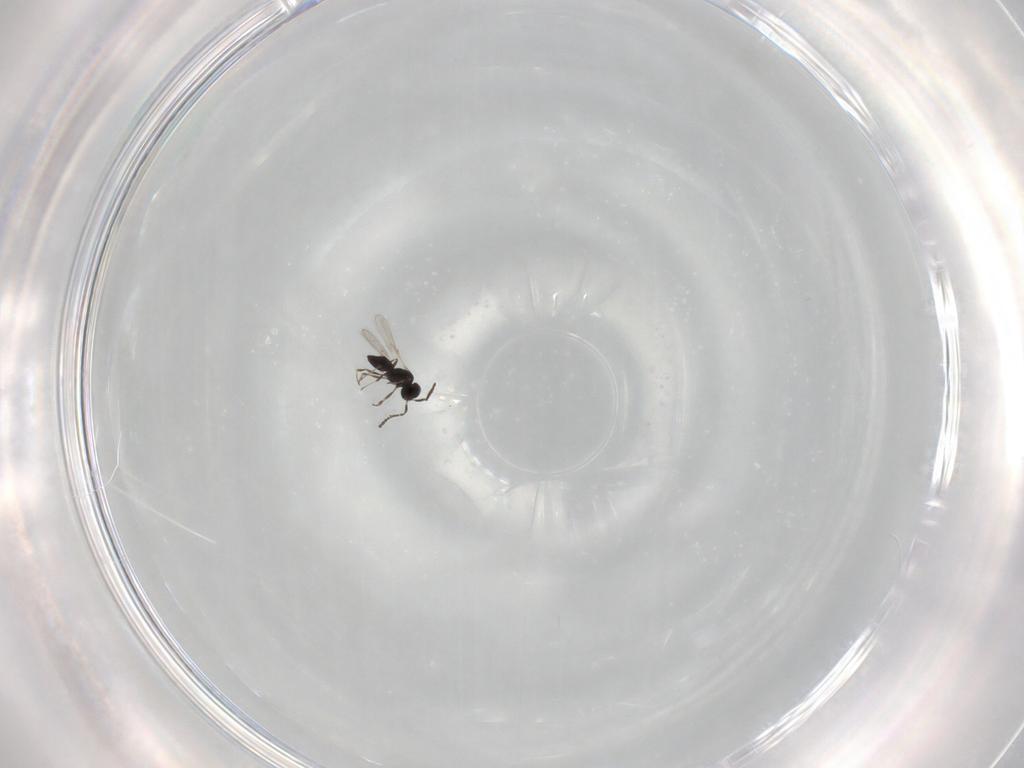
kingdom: Animalia
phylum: Arthropoda
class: Insecta
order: Hymenoptera
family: Scelionidae
